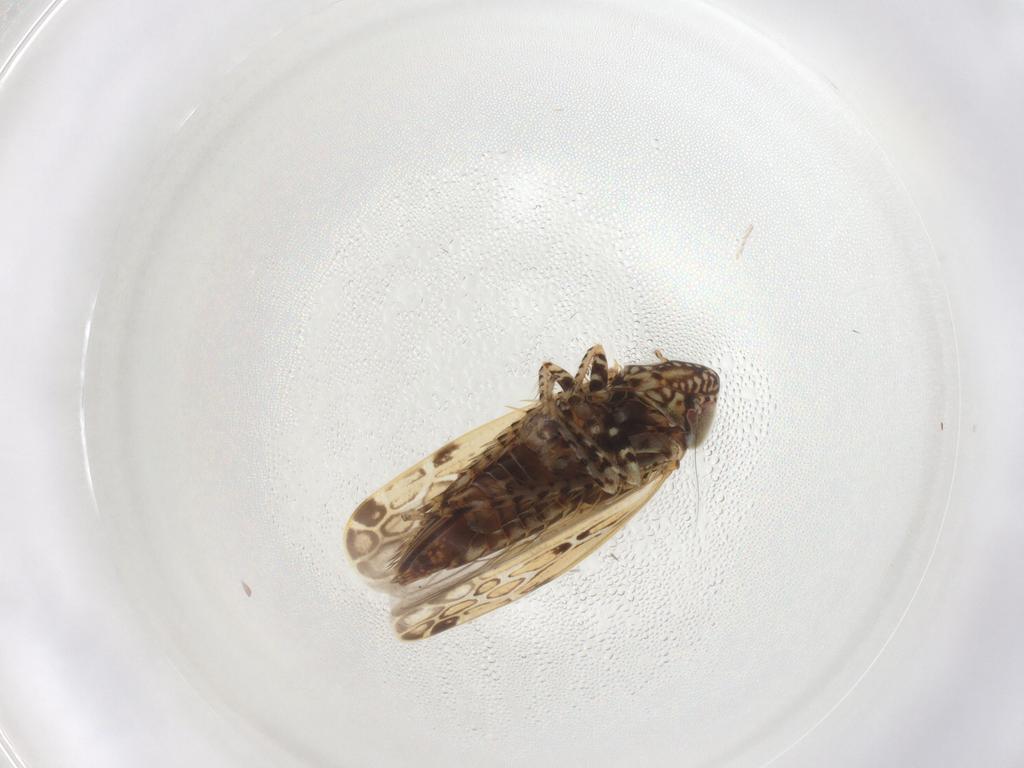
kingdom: Animalia
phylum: Arthropoda
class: Insecta
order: Hemiptera
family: Cicadellidae
